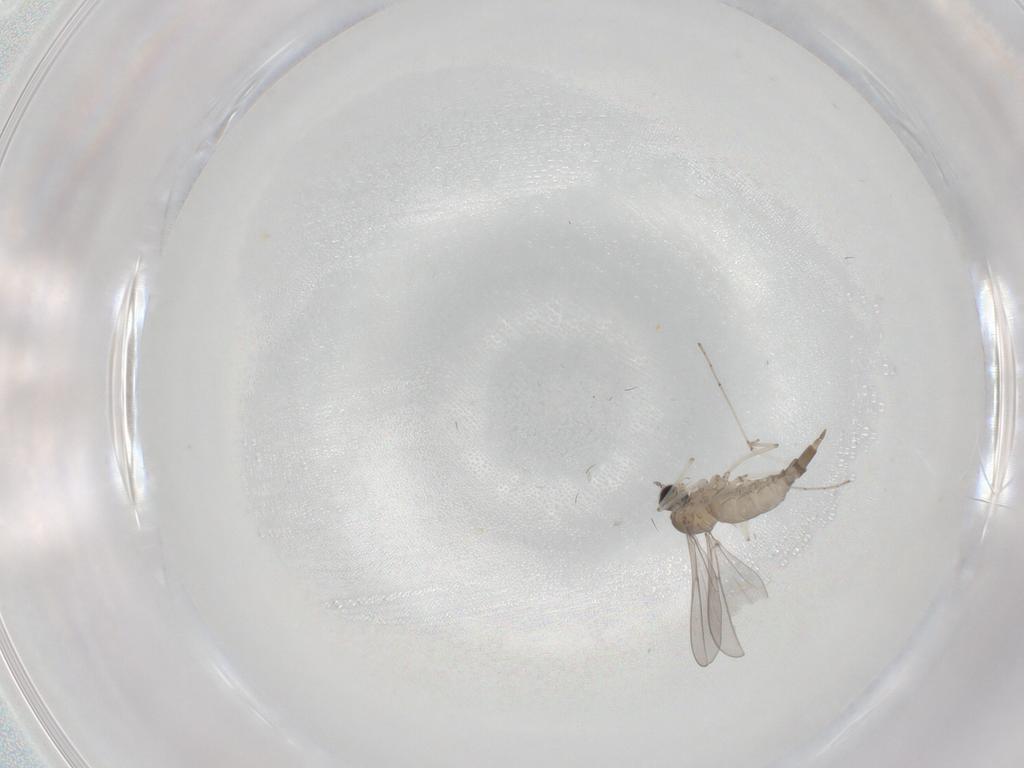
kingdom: Animalia
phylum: Arthropoda
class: Insecta
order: Diptera
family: Cecidomyiidae
